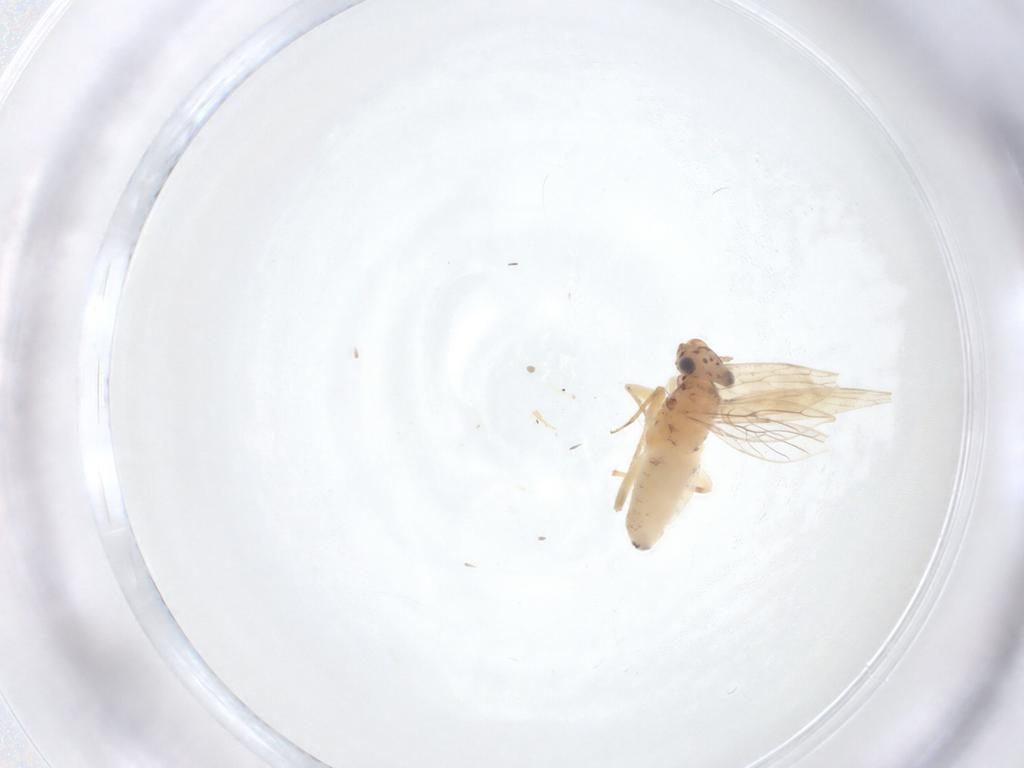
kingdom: Animalia
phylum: Arthropoda
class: Insecta
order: Psocodea
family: Lepidopsocidae
